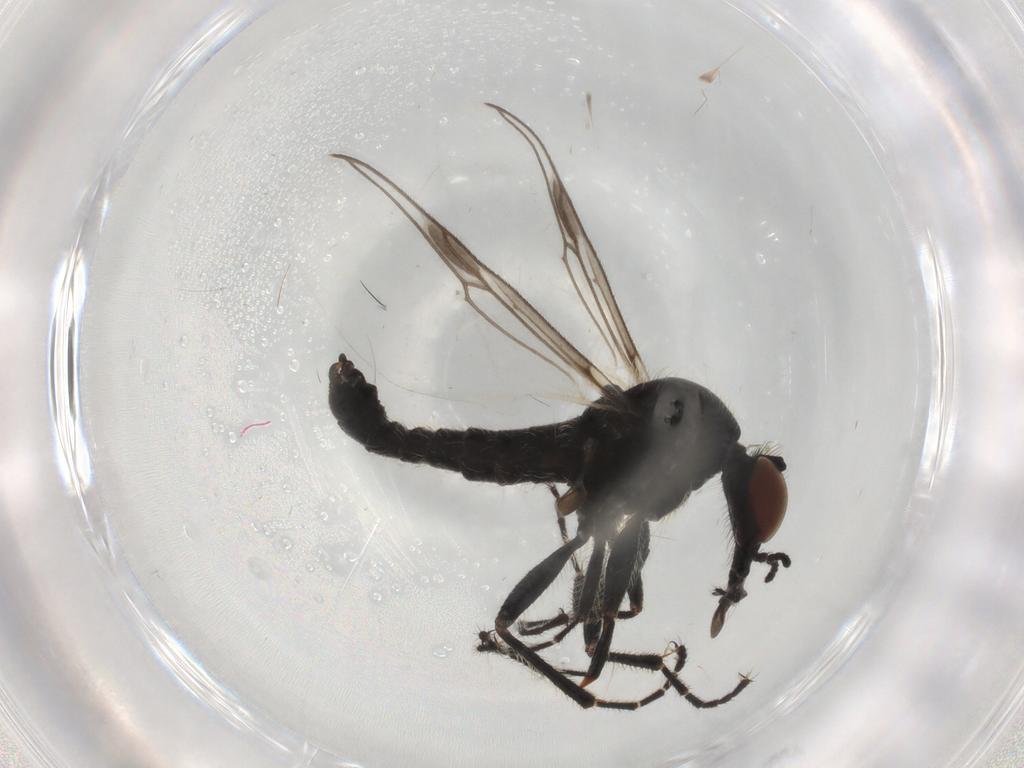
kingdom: Animalia
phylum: Arthropoda
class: Insecta
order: Diptera
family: Bibionidae
